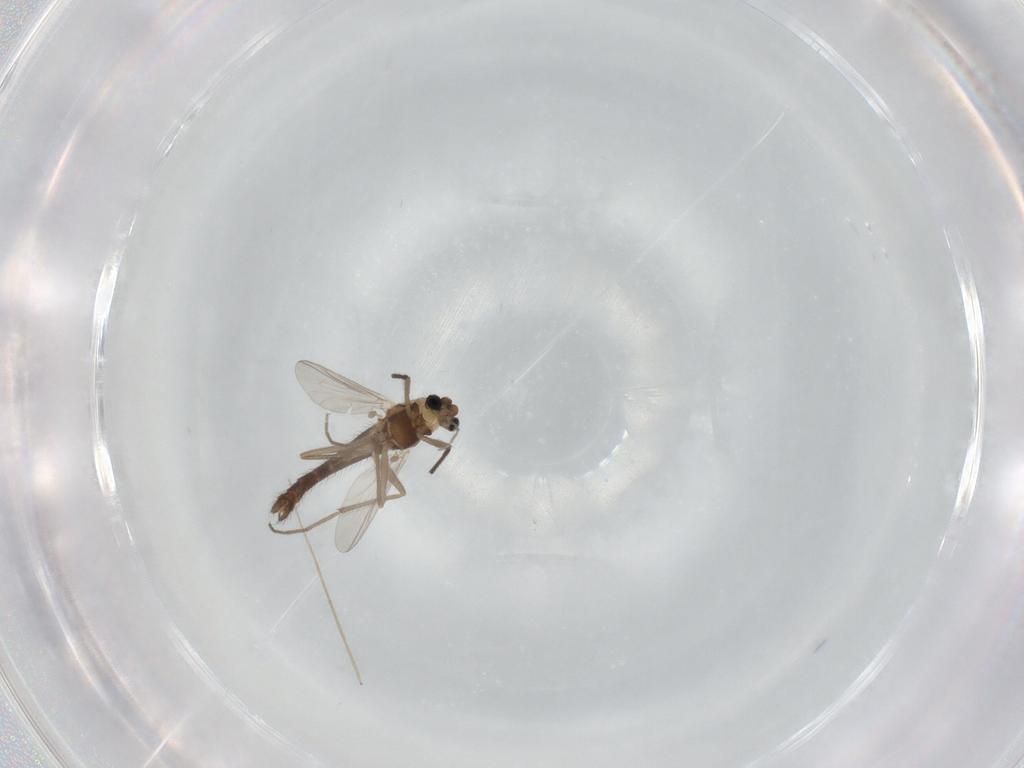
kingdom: Animalia
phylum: Arthropoda
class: Insecta
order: Diptera
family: Chironomidae
